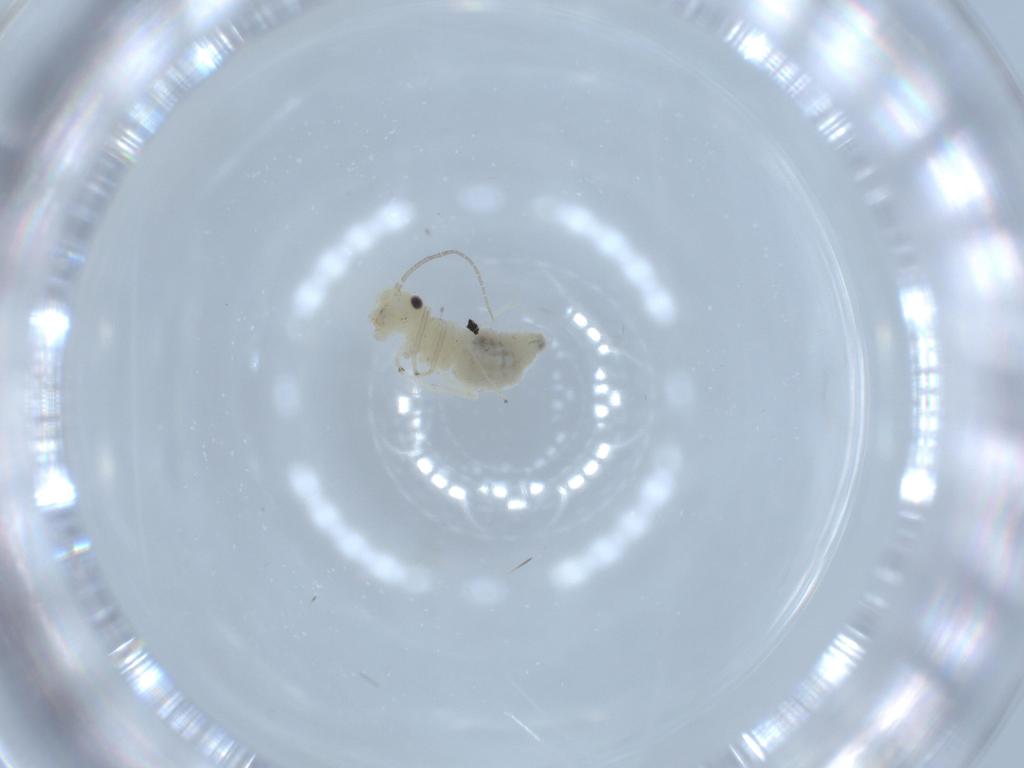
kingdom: Animalia
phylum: Arthropoda
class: Insecta
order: Psocodea
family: Caeciliusidae
